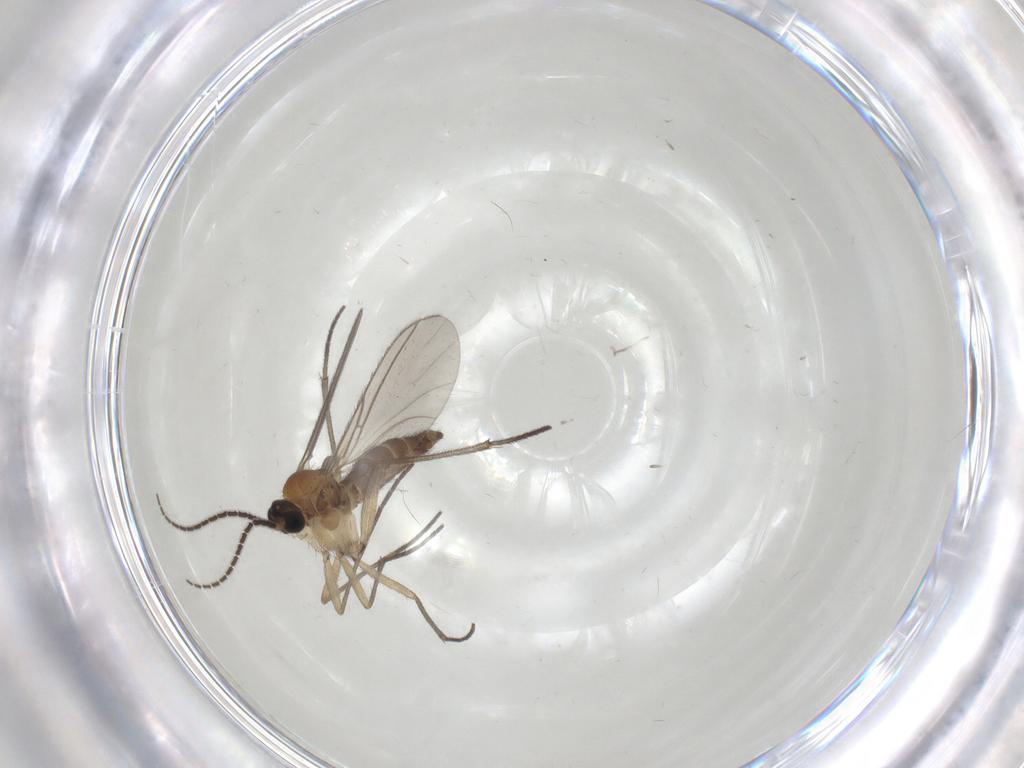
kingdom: Animalia
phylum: Arthropoda
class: Insecta
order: Diptera
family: Sciaridae
